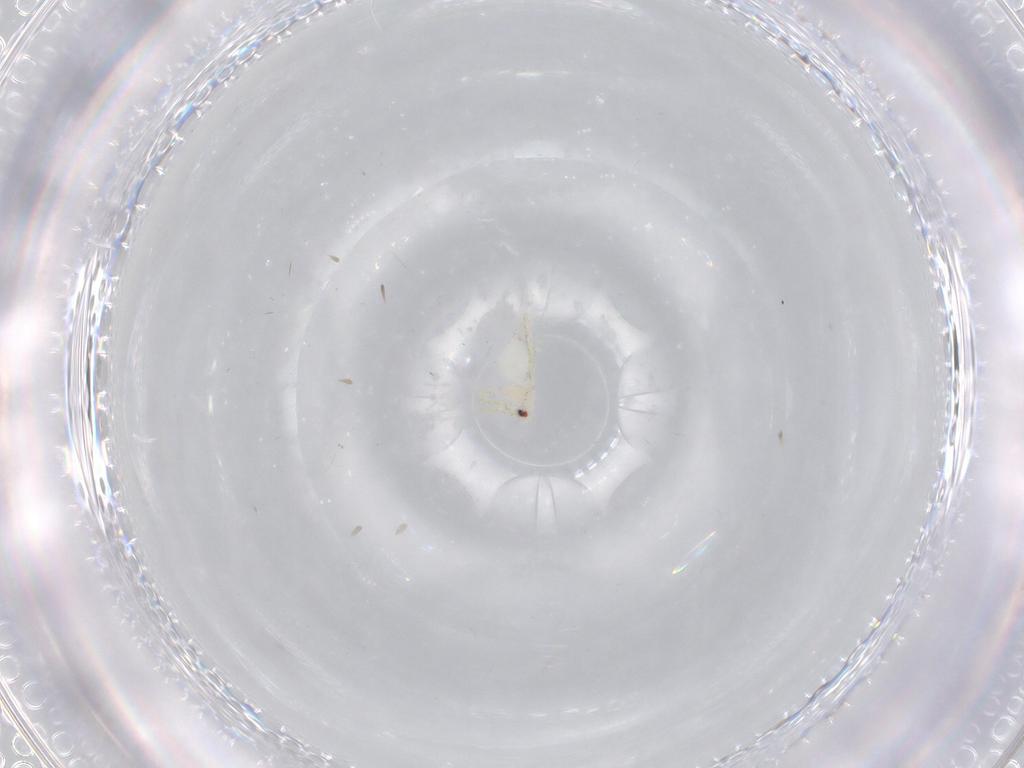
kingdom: Animalia
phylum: Arthropoda
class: Insecta
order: Hemiptera
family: Aleyrodidae
